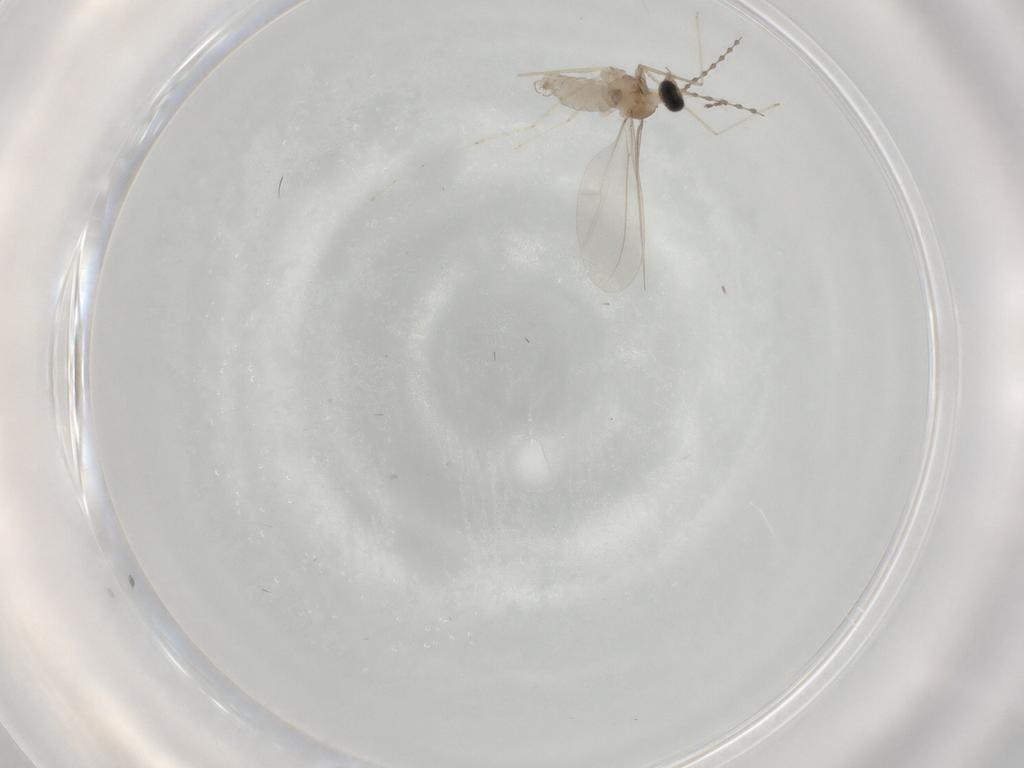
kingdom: Animalia
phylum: Arthropoda
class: Insecta
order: Diptera
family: Cecidomyiidae
